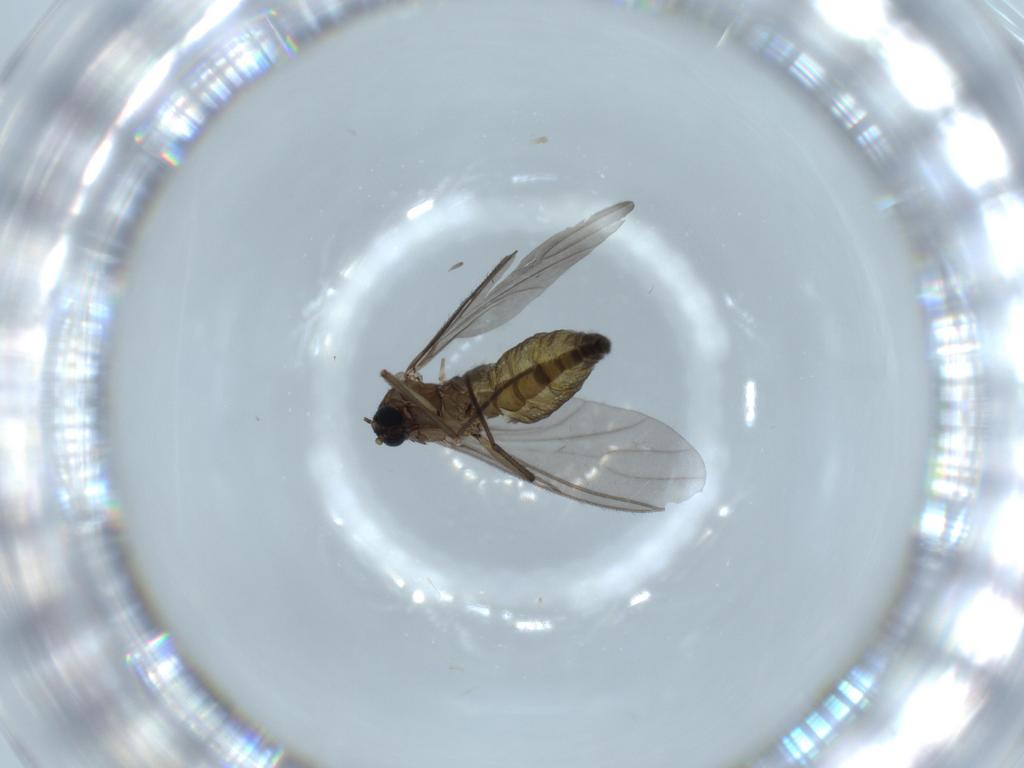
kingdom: Animalia
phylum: Arthropoda
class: Insecta
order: Diptera
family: Sciaridae
